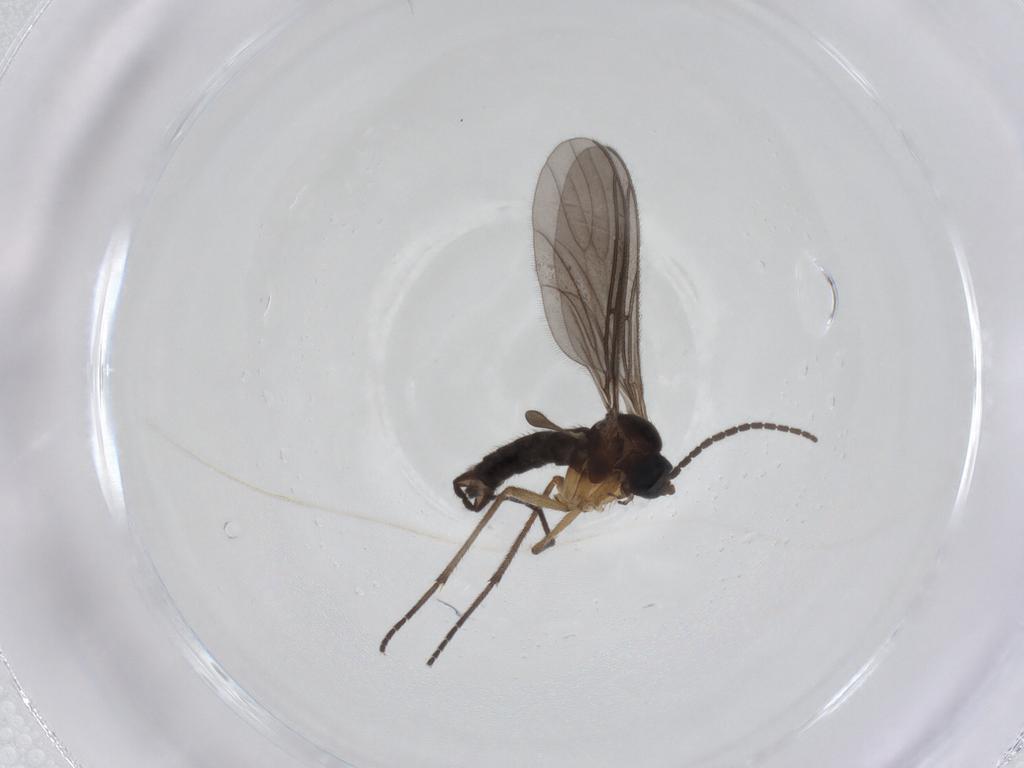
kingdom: Animalia
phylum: Arthropoda
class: Insecta
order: Diptera
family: Sciaridae
